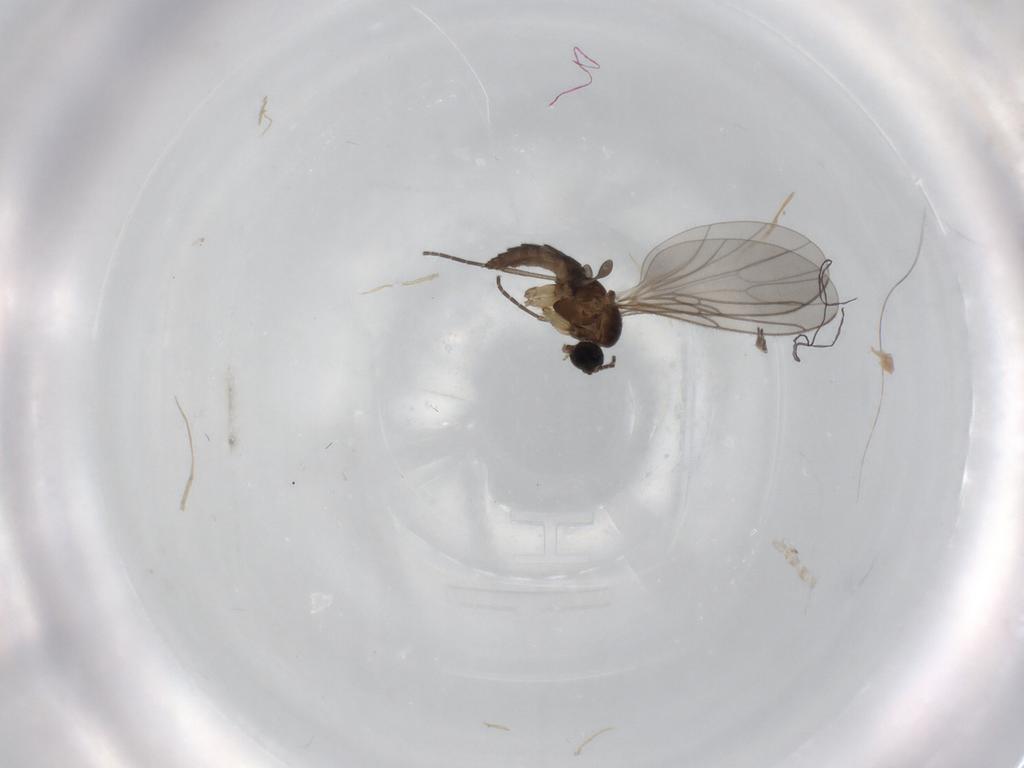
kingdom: Animalia
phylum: Arthropoda
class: Insecta
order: Diptera
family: Sciaridae
